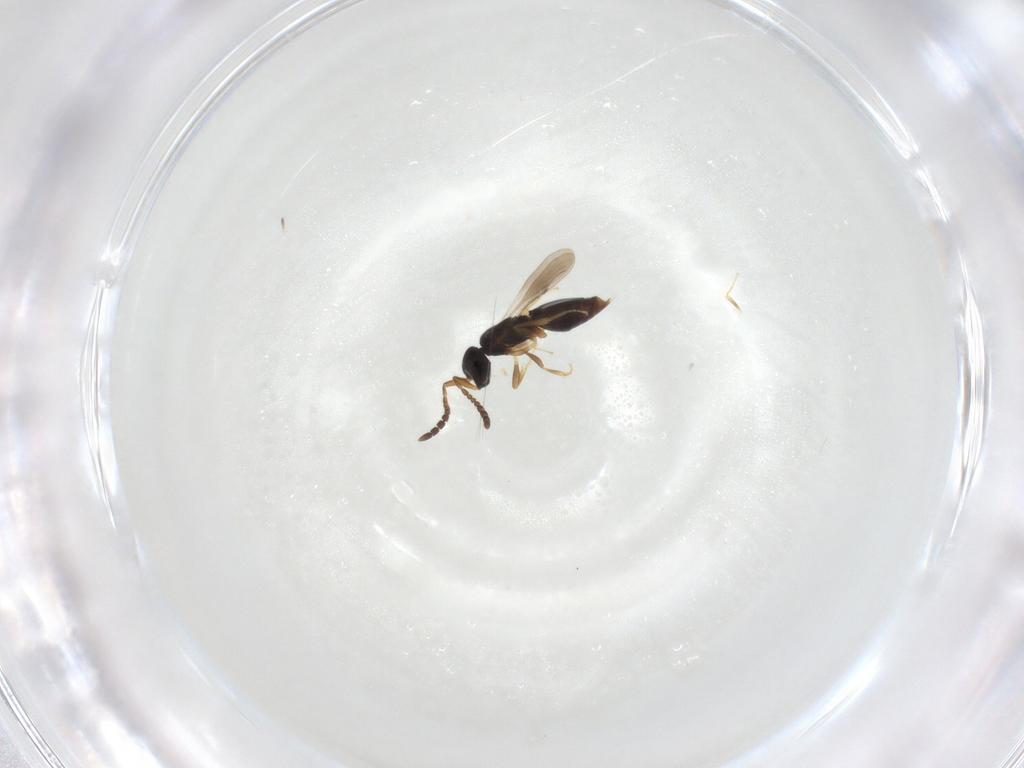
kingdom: Animalia
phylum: Arthropoda
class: Insecta
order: Hymenoptera
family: Ceraphronidae
